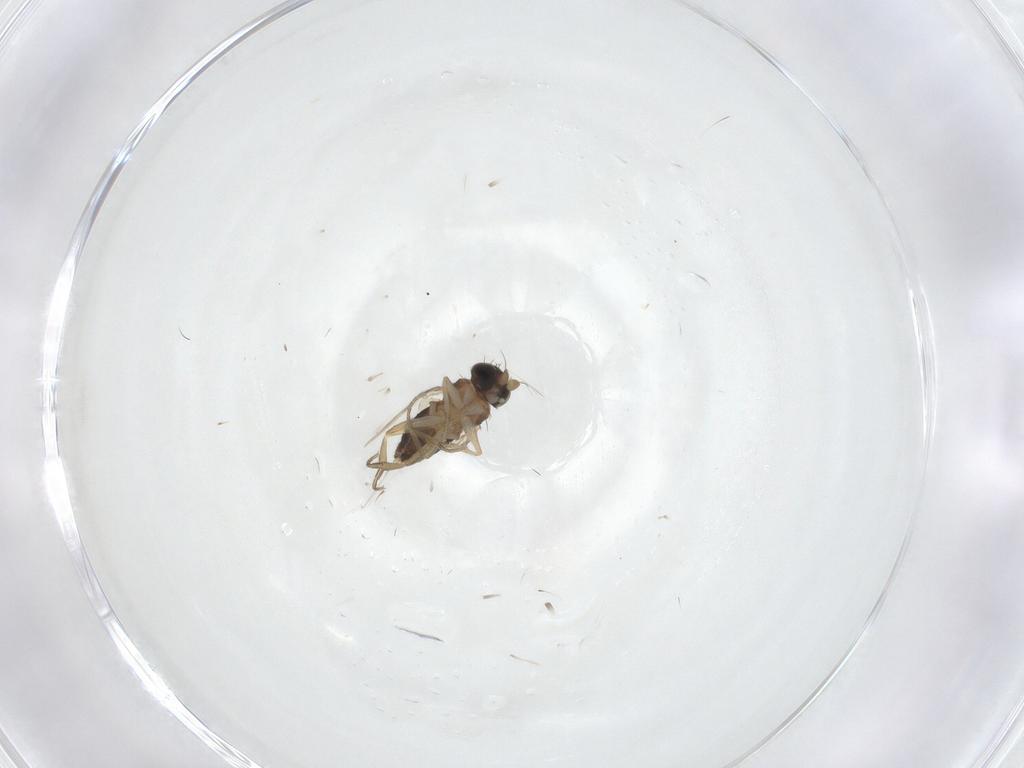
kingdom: Animalia
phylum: Arthropoda
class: Insecta
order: Diptera
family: Phoridae
